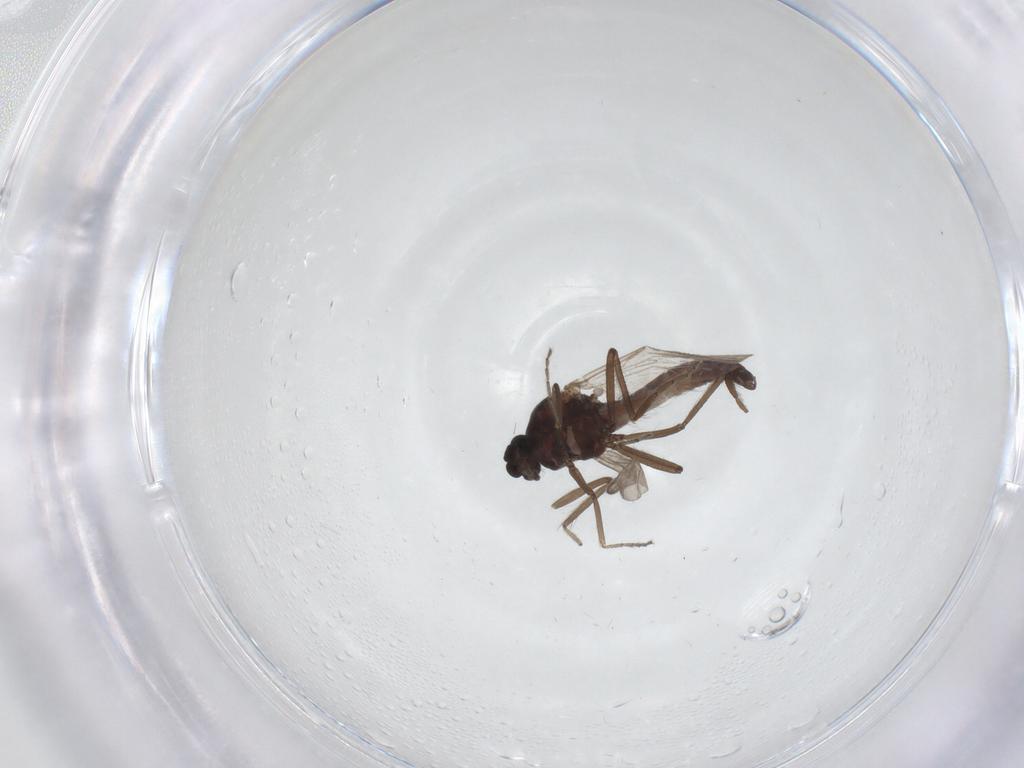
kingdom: Animalia
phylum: Arthropoda
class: Insecta
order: Diptera
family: Ceratopogonidae
